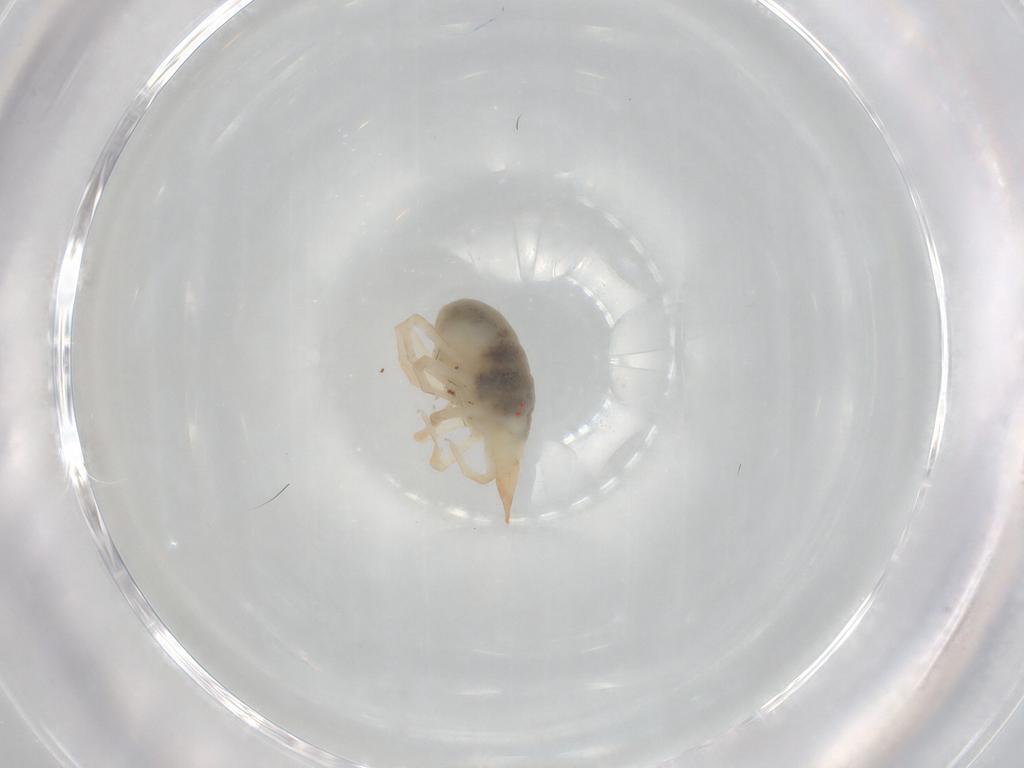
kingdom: Animalia
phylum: Arthropoda
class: Arachnida
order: Trombidiformes
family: Bdellidae
